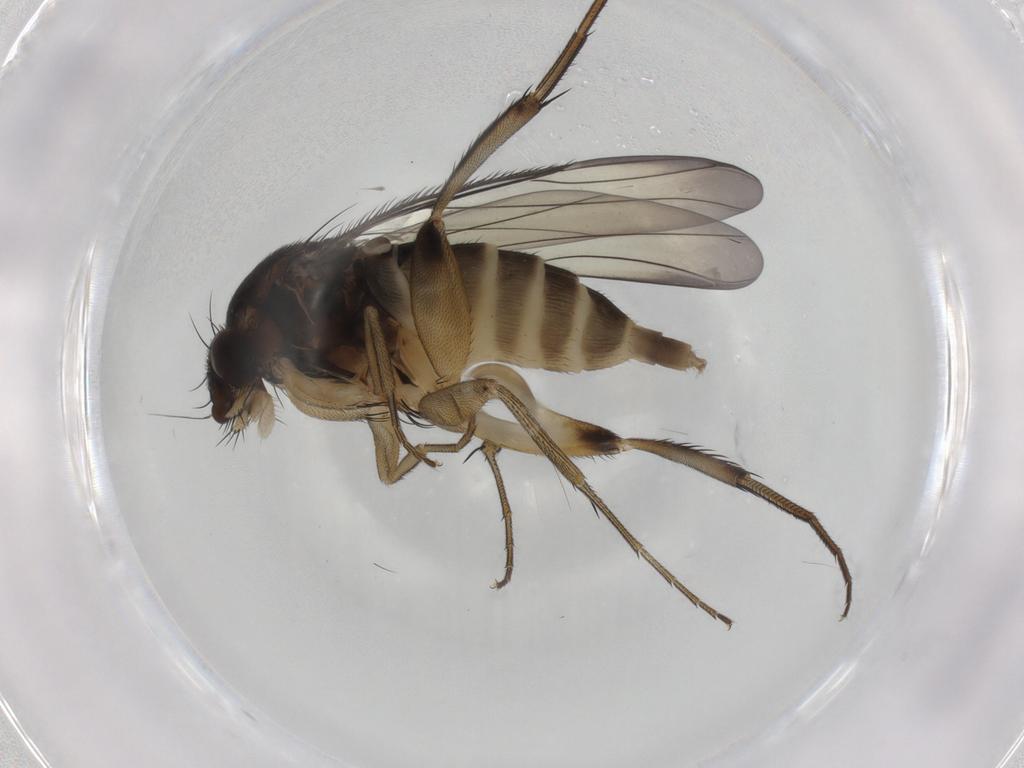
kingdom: Animalia
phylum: Arthropoda
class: Insecta
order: Diptera
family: Phoridae
